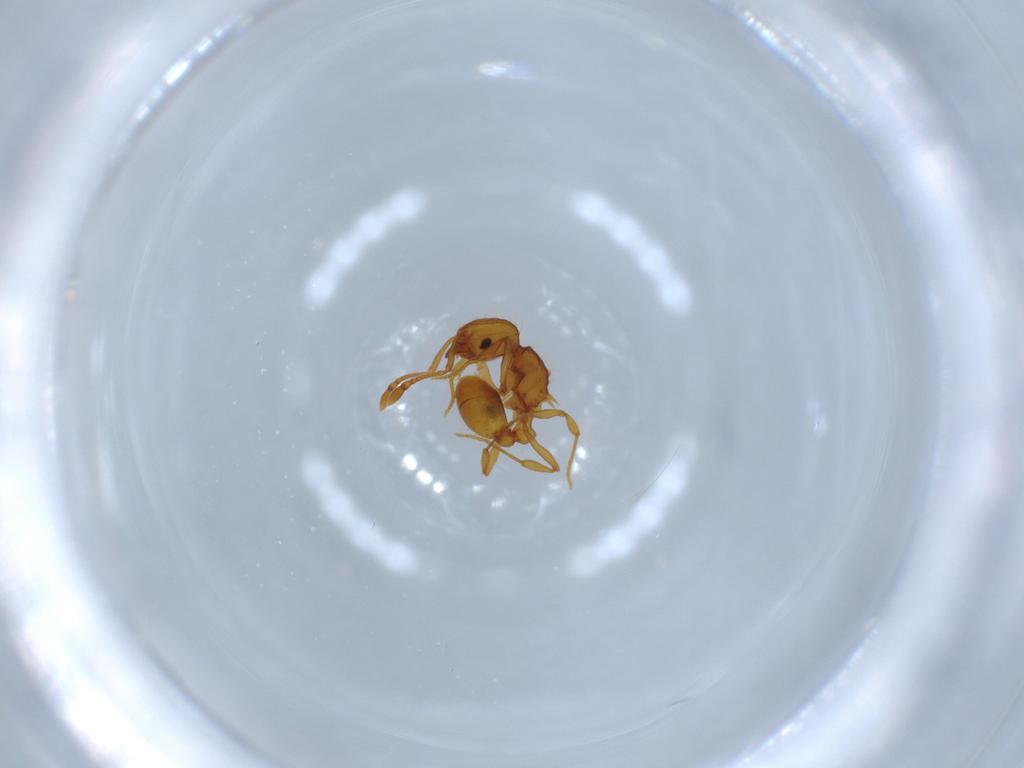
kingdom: Animalia
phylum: Arthropoda
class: Insecta
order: Hymenoptera
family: Formicidae
